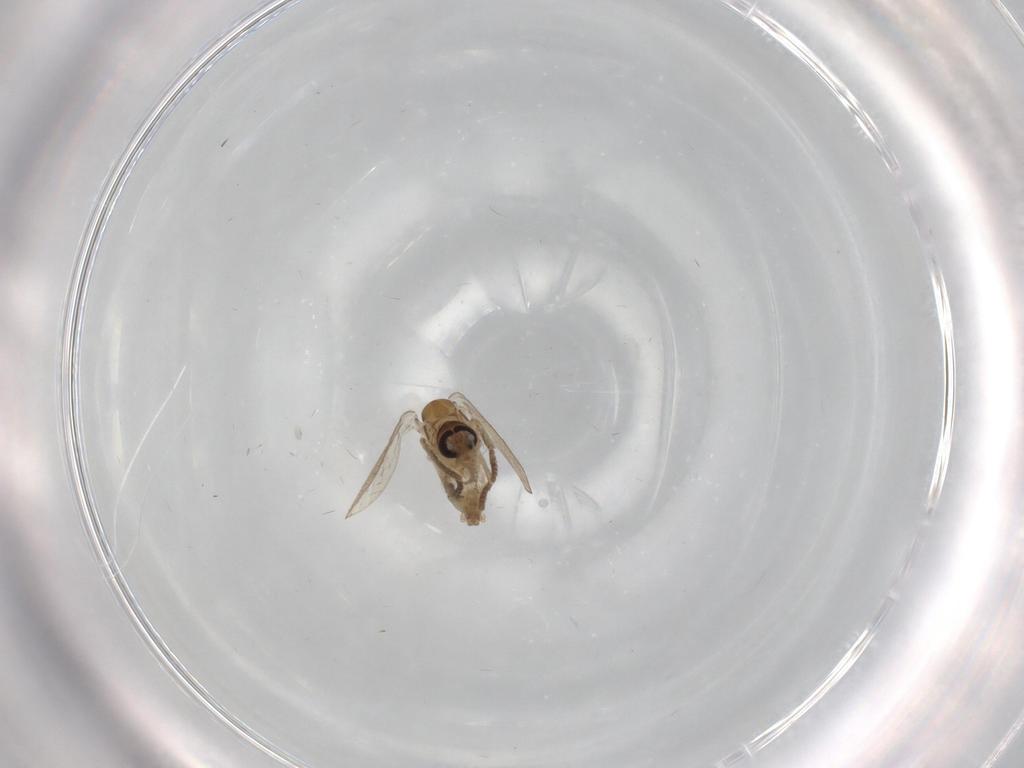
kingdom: Animalia
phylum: Arthropoda
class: Insecta
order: Diptera
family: Psychodidae
